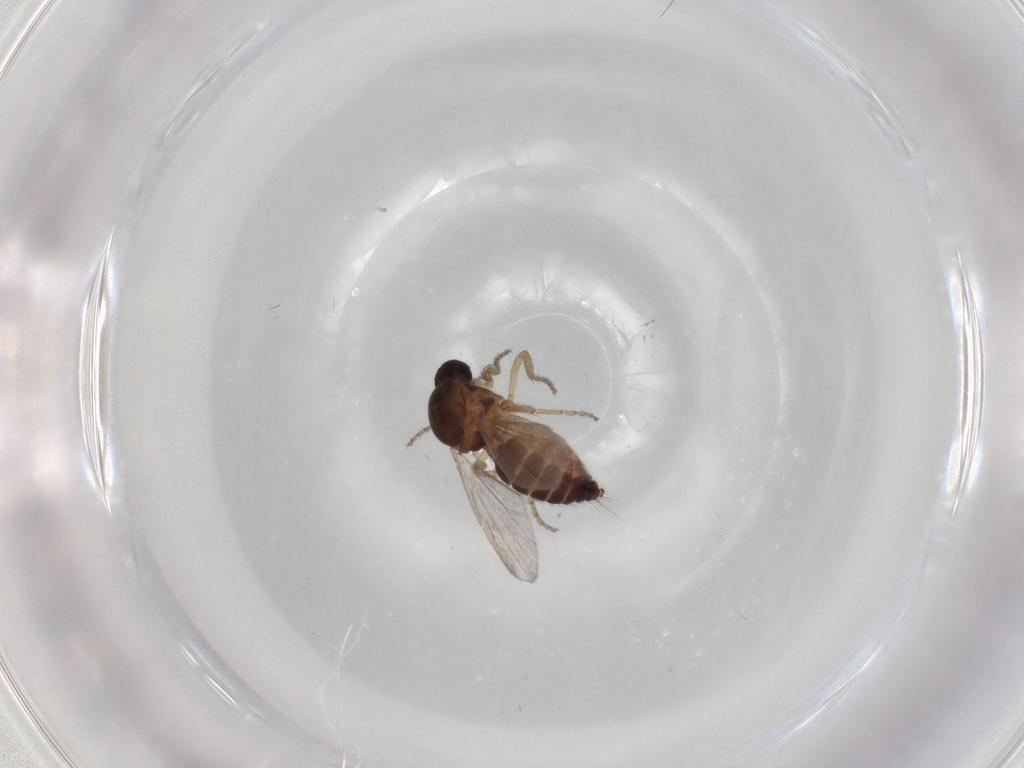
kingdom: Animalia
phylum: Arthropoda
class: Insecta
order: Diptera
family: Ceratopogonidae
